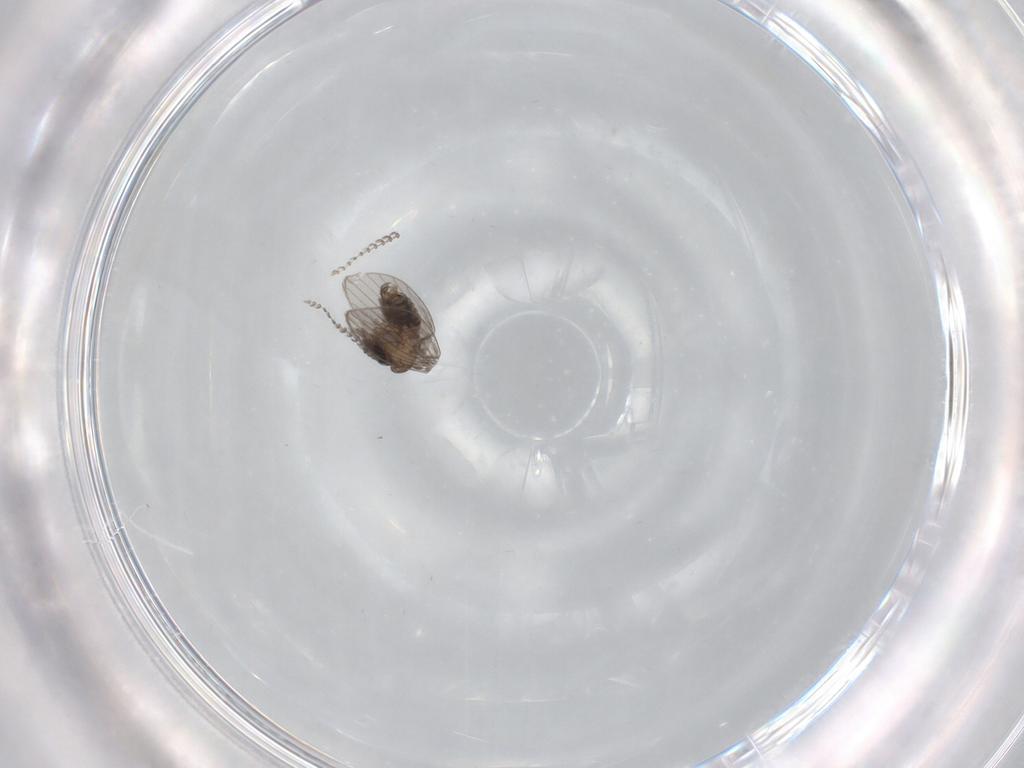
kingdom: Animalia
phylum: Arthropoda
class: Insecta
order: Diptera
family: Psychodidae
